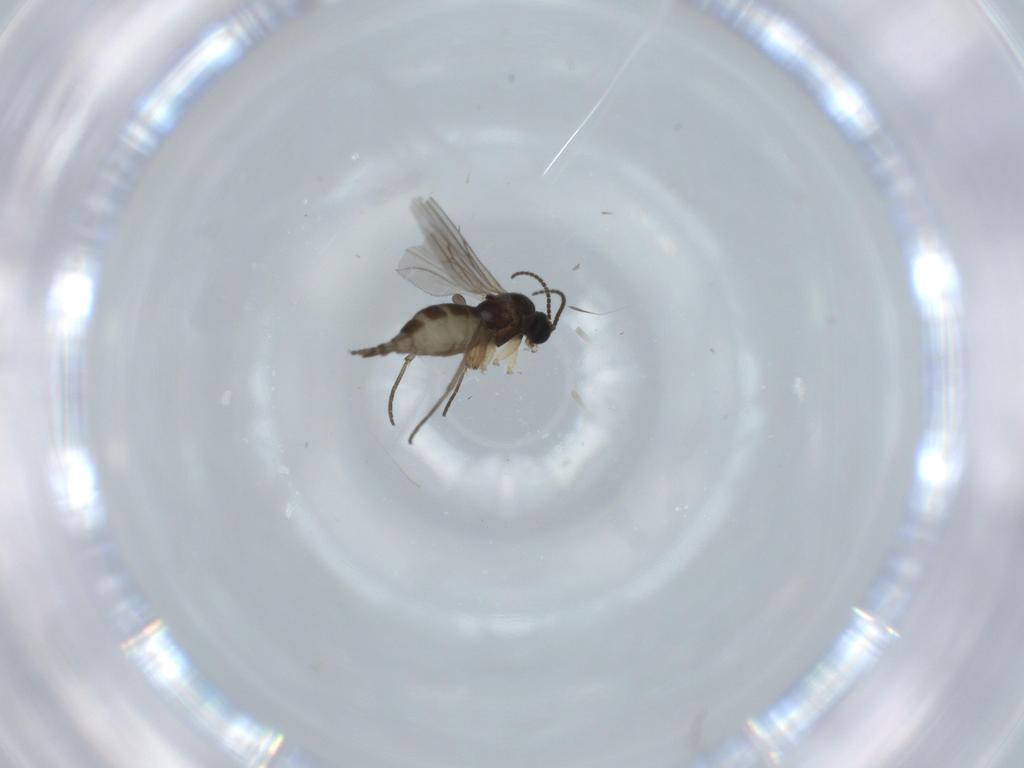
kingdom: Animalia
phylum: Arthropoda
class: Insecta
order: Diptera
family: Sciaridae
